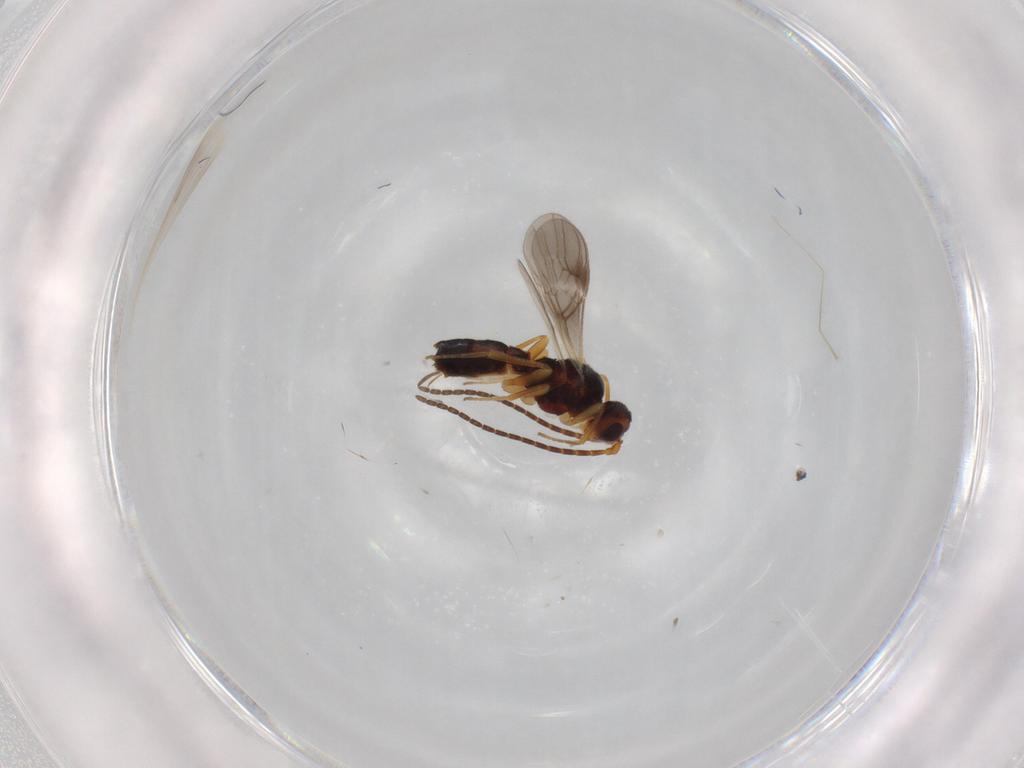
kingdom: Animalia
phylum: Arthropoda
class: Insecta
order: Hymenoptera
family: Braconidae
